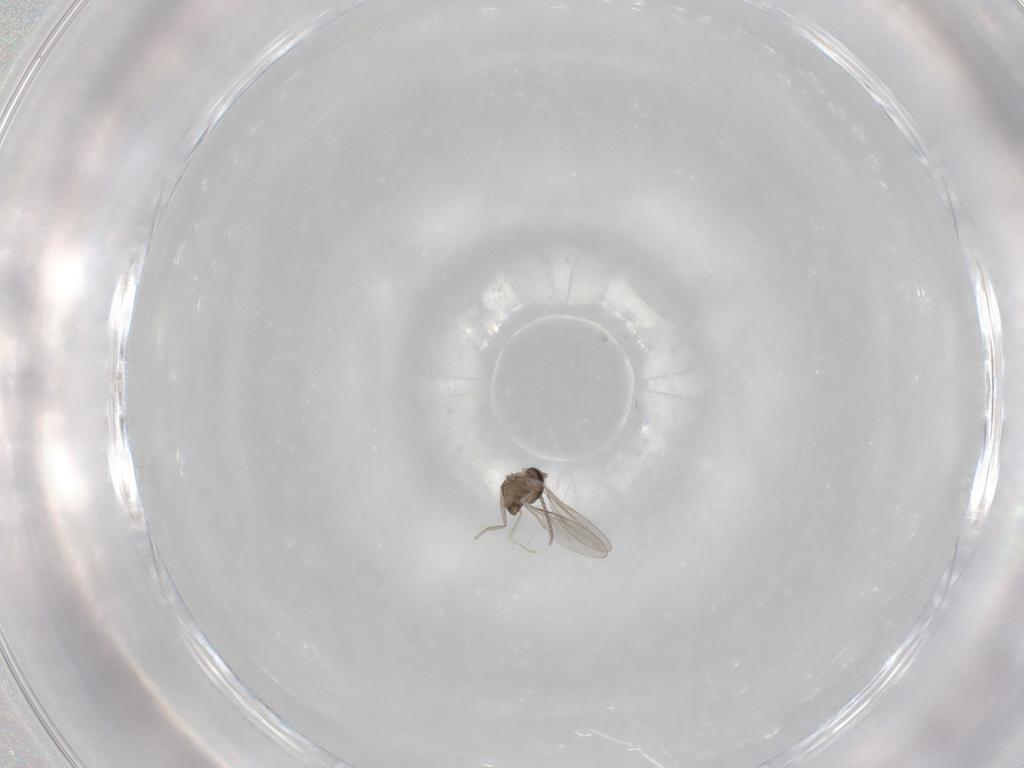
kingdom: Animalia
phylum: Arthropoda
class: Insecta
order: Diptera
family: Cecidomyiidae
